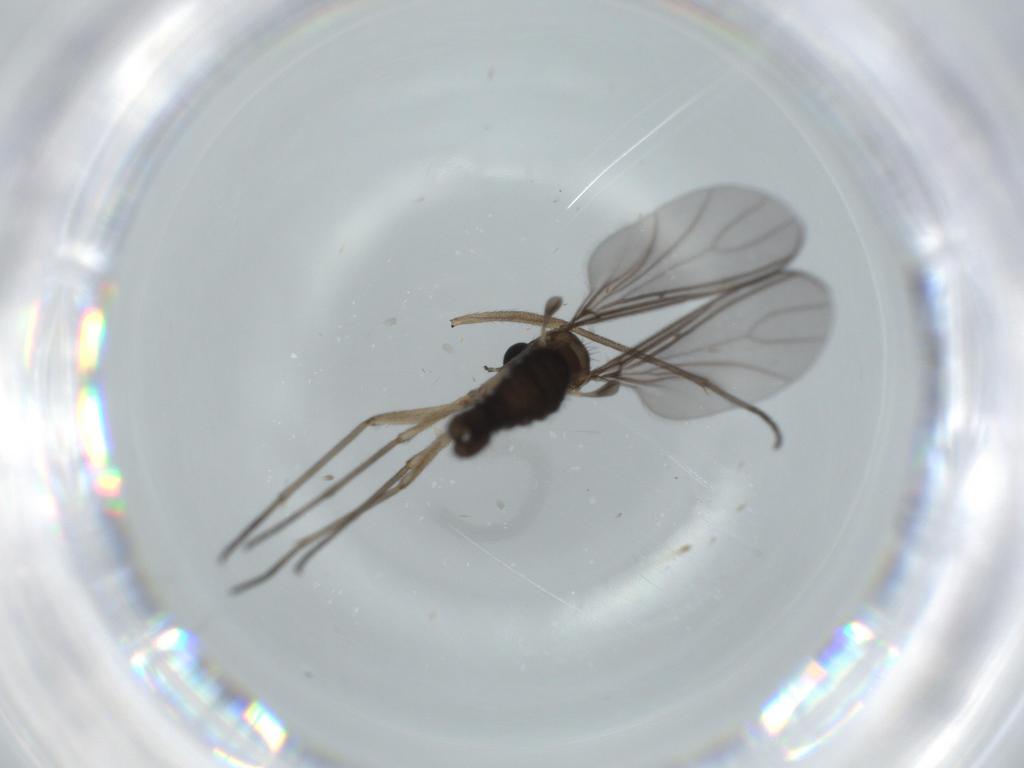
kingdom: Animalia
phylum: Arthropoda
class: Insecta
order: Diptera
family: Sciaridae
